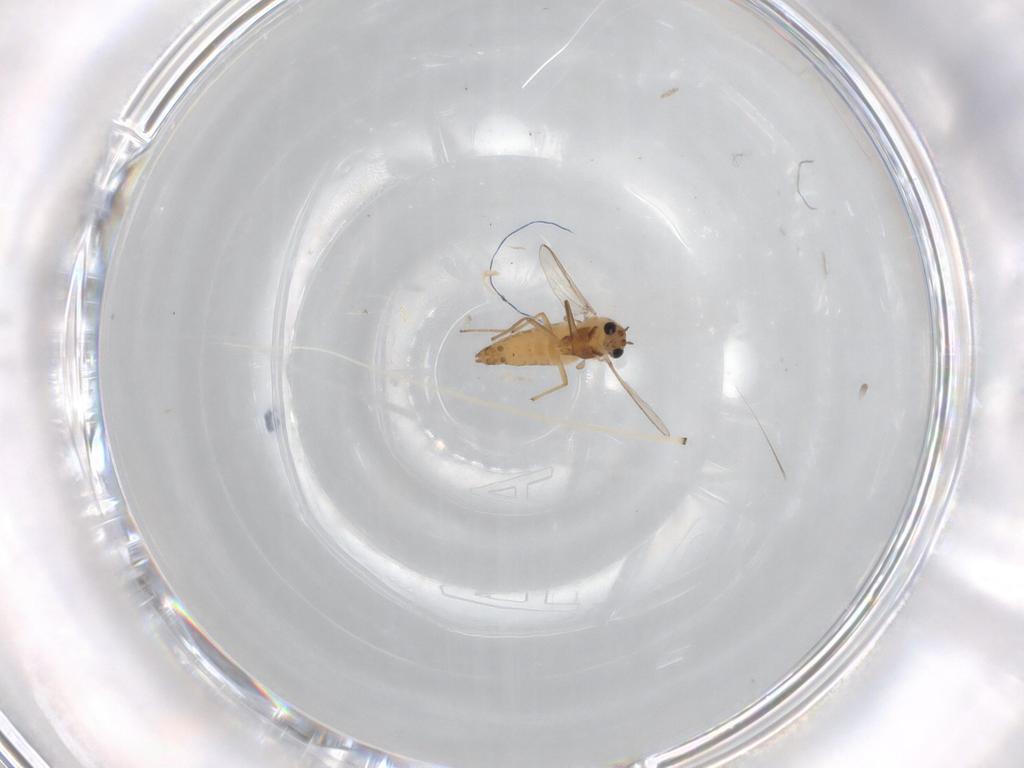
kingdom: Animalia
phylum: Arthropoda
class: Insecta
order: Diptera
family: Chironomidae
